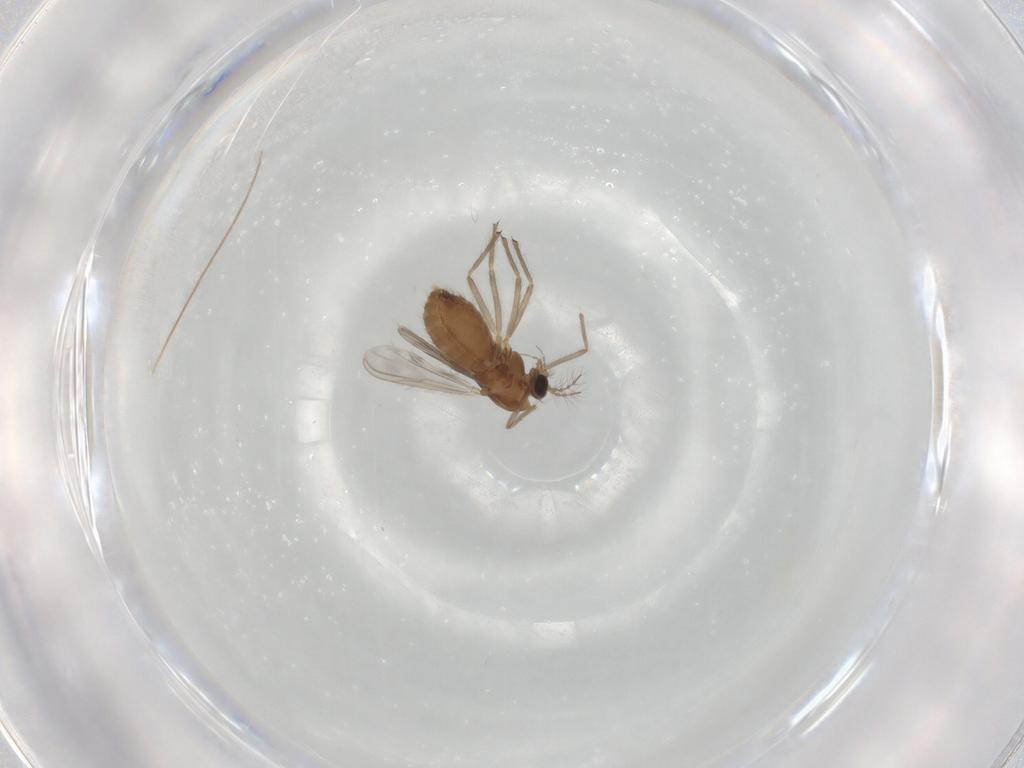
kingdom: Animalia
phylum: Arthropoda
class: Insecta
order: Diptera
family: Chironomidae
